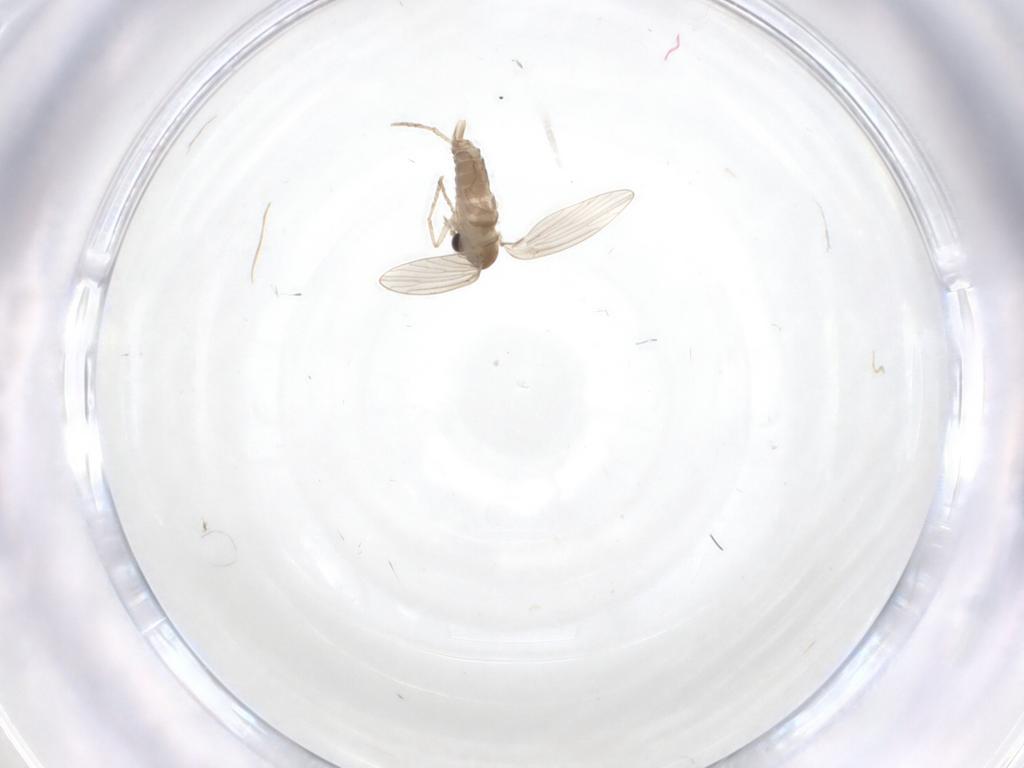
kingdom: Animalia
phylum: Arthropoda
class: Insecta
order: Diptera
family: Psychodidae
